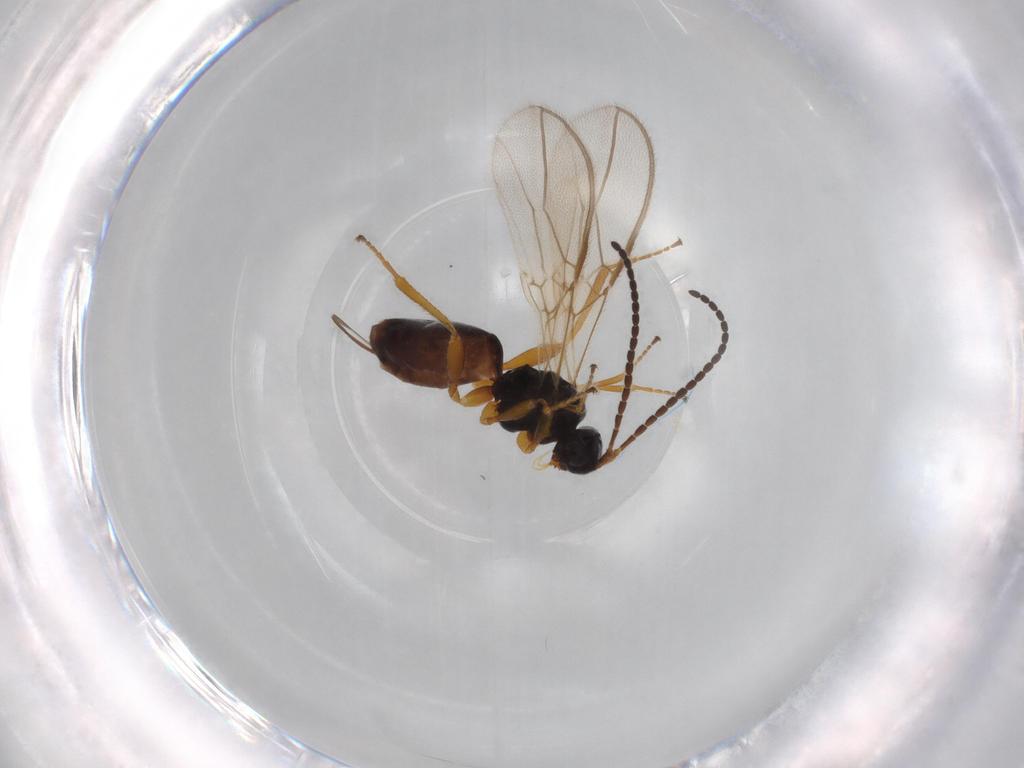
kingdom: Animalia
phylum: Arthropoda
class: Insecta
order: Hymenoptera
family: Braconidae
